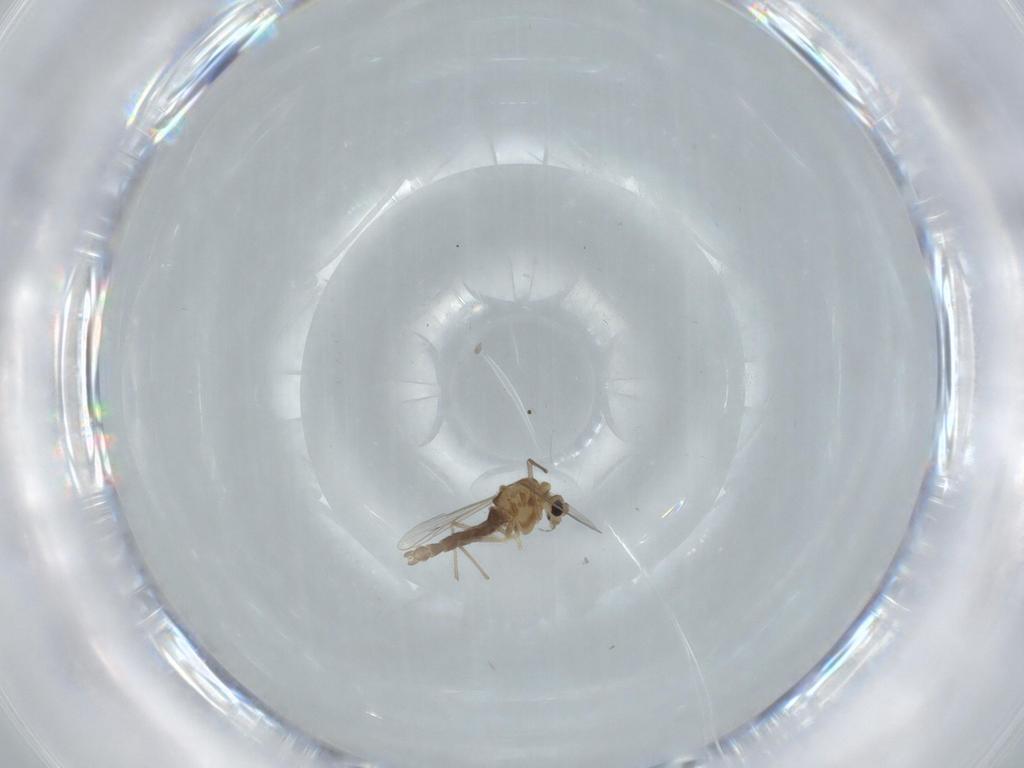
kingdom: Animalia
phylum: Arthropoda
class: Insecta
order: Diptera
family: Chironomidae
